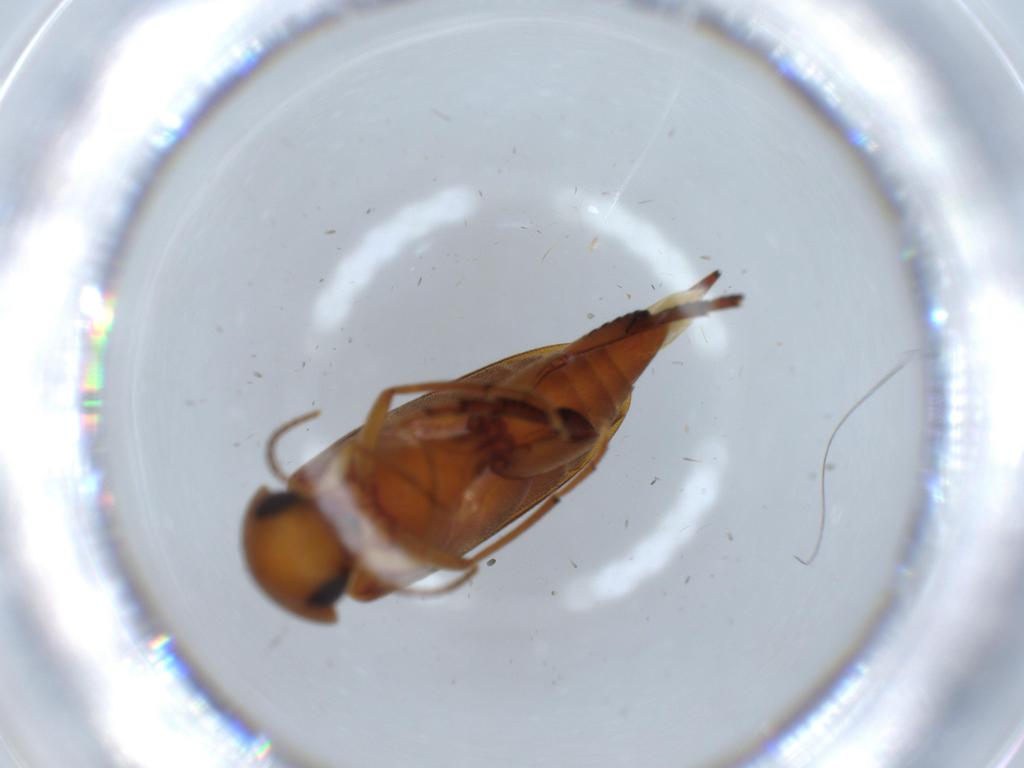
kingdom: Animalia
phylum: Arthropoda
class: Insecta
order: Coleoptera
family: Mordellidae
